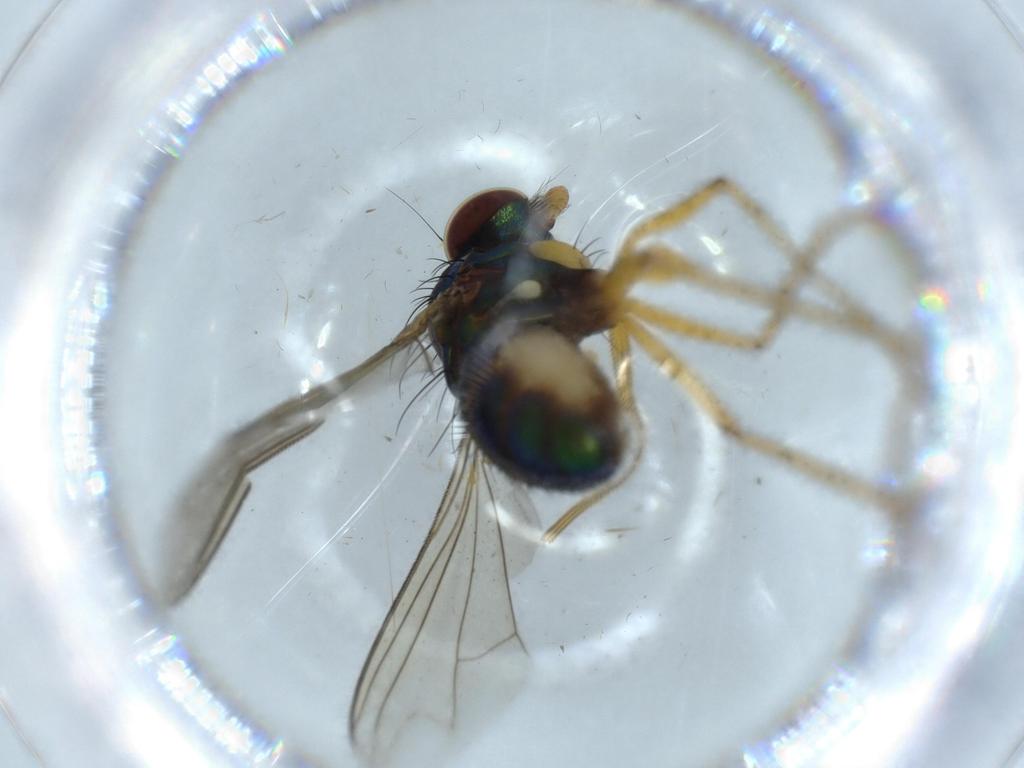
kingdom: Animalia
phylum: Arthropoda
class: Insecta
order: Diptera
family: Dolichopodidae
